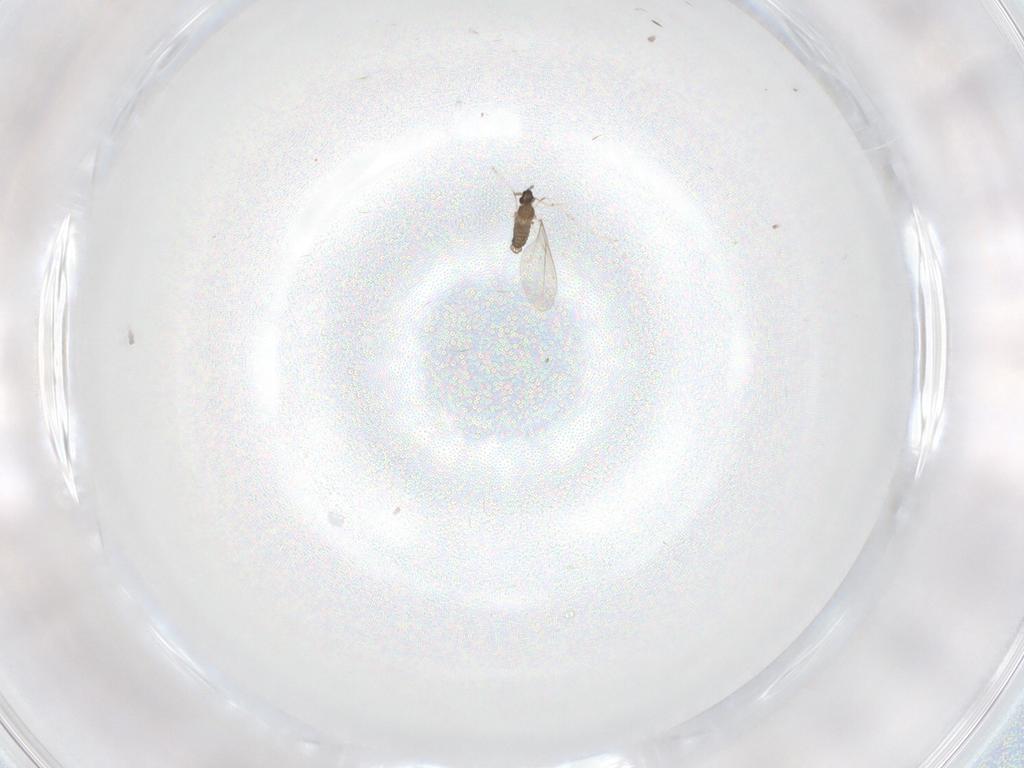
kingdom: Animalia
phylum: Arthropoda
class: Insecta
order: Diptera
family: Cecidomyiidae
